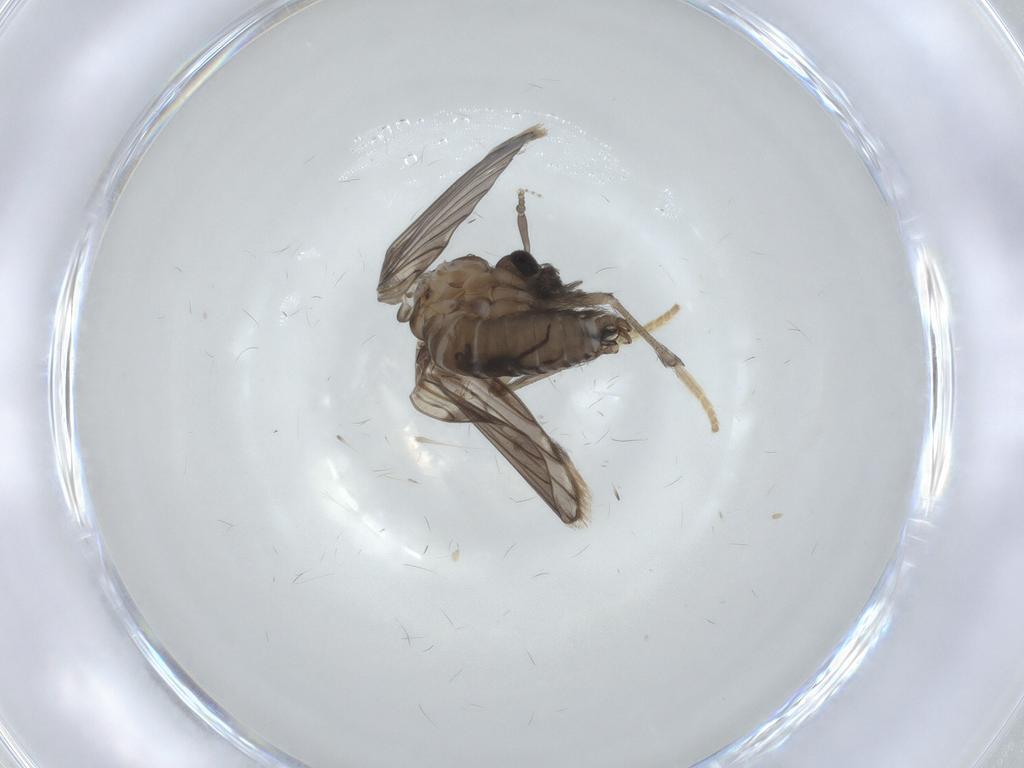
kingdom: Animalia
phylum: Arthropoda
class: Insecta
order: Diptera
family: Psychodidae
